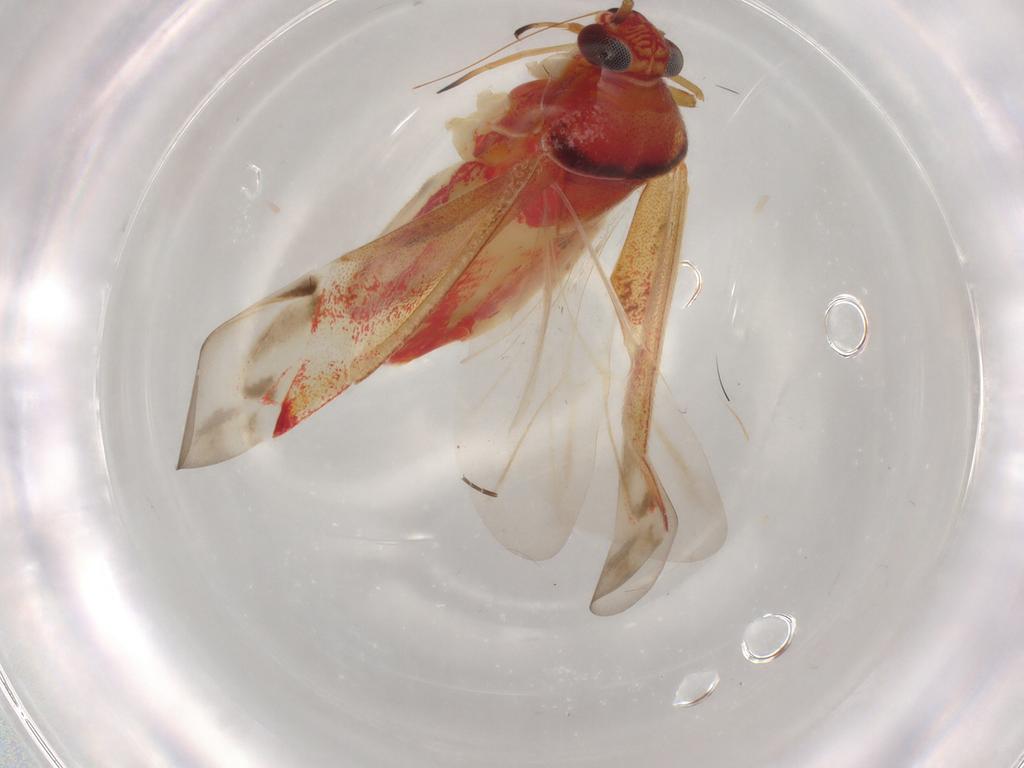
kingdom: Animalia
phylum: Arthropoda
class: Insecta
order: Hemiptera
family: Miridae
